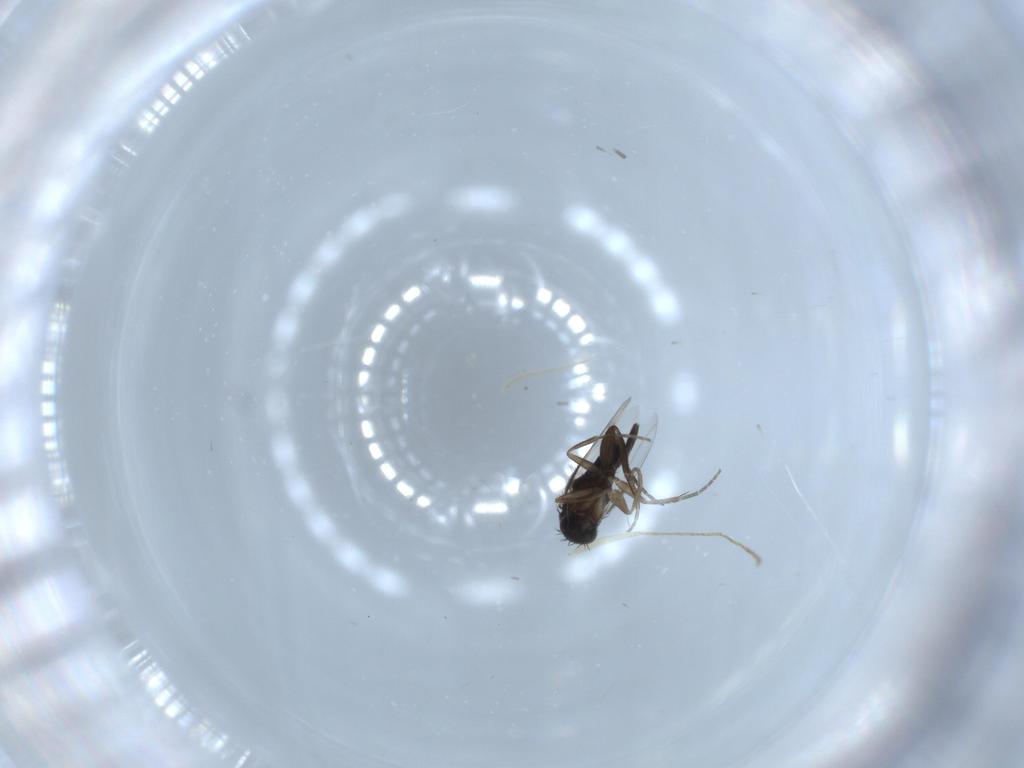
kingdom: Animalia
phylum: Arthropoda
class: Insecta
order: Diptera
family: Psychodidae
